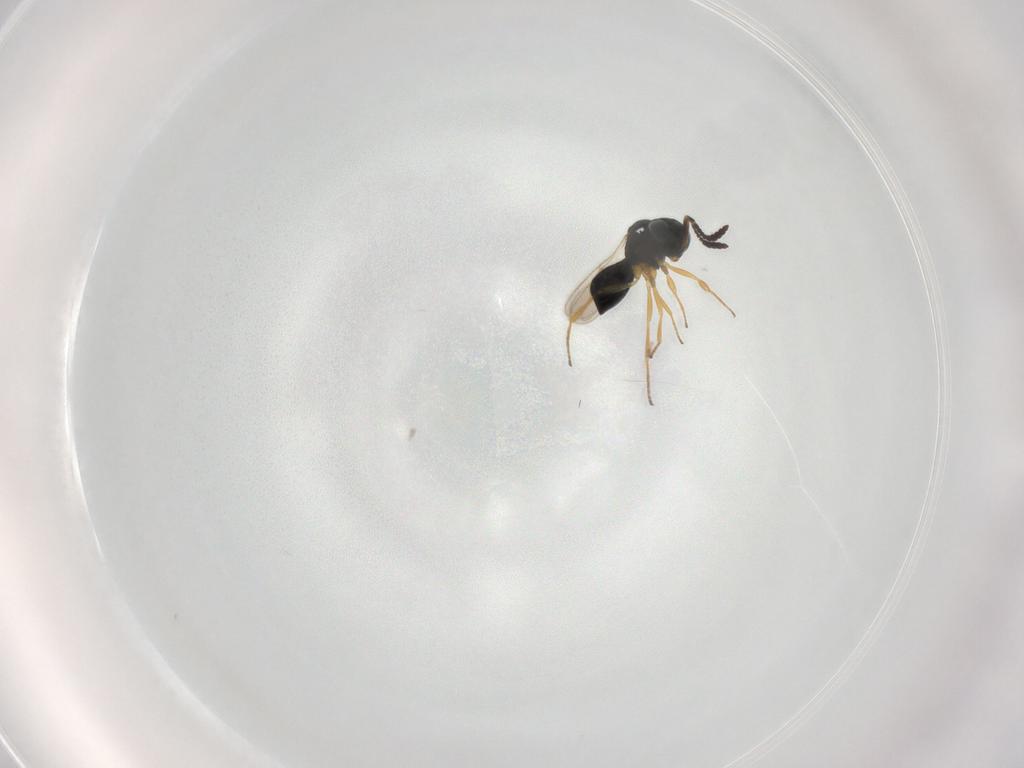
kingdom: Animalia
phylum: Arthropoda
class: Insecta
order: Hymenoptera
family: Scelionidae
